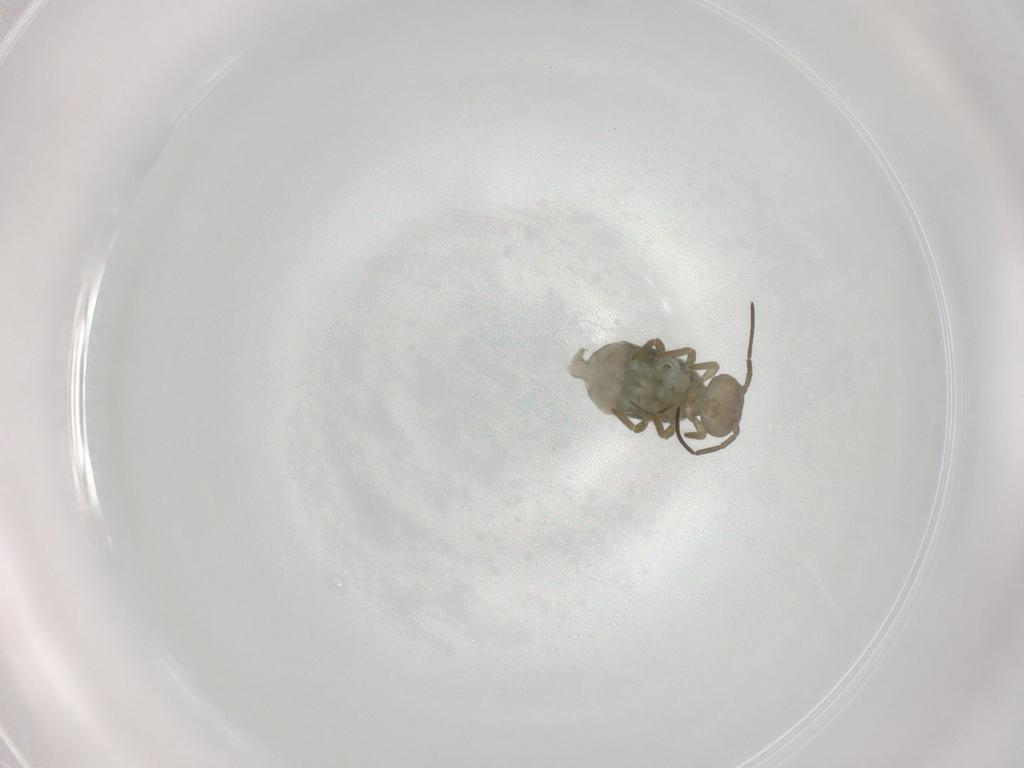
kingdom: Animalia
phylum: Arthropoda
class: Collembola
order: Symphypleona
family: Sminthuridae
